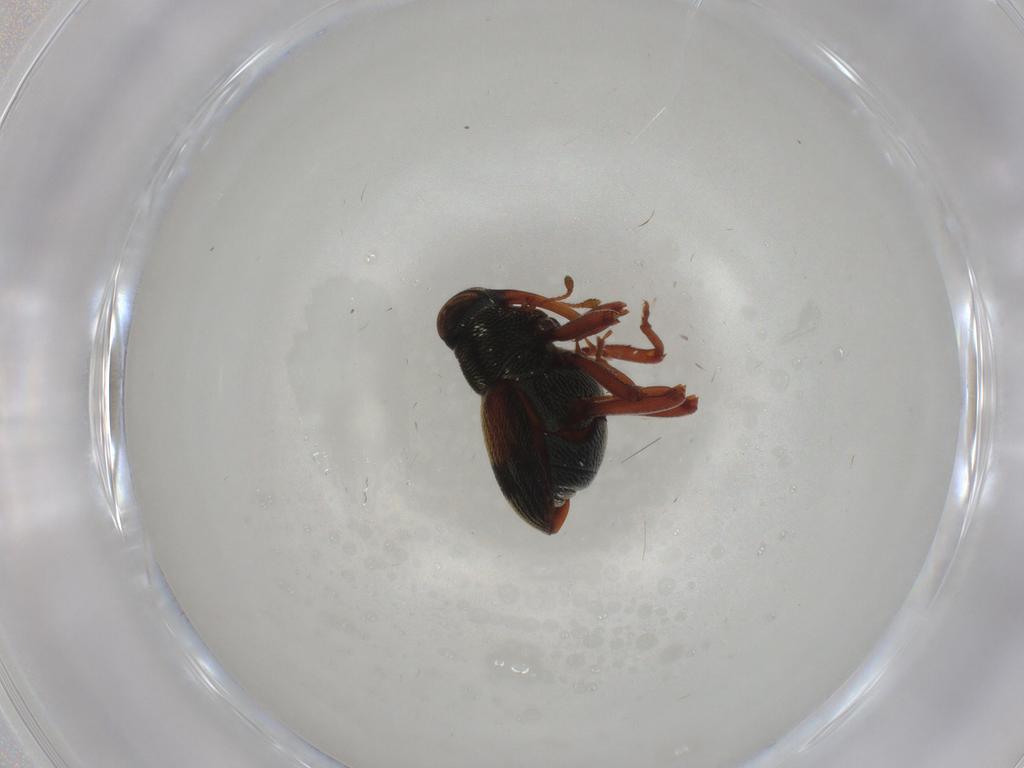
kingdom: Animalia
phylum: Arthropoda
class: Insecta
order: Coleoptera
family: Curculionidae
